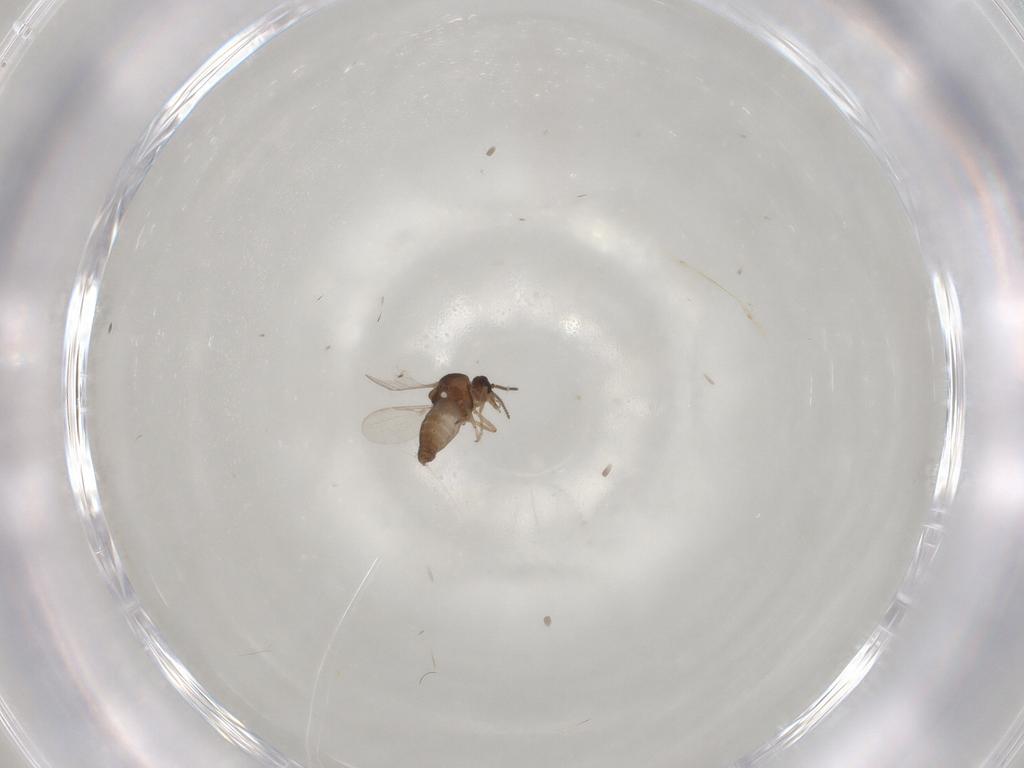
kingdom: Animalia
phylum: Arthropoda
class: Insecta
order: Diptera
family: Ceratopogonidae
